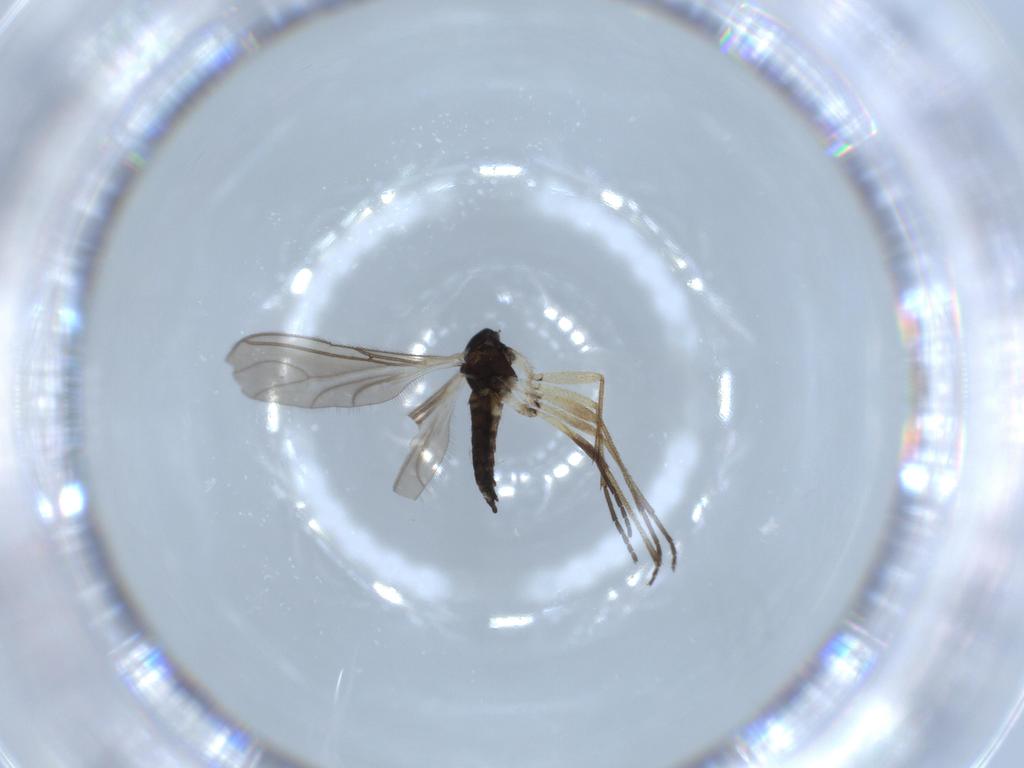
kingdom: Animalia
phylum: Arthropoda
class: Insecta
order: Diptera
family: Sciaridae
